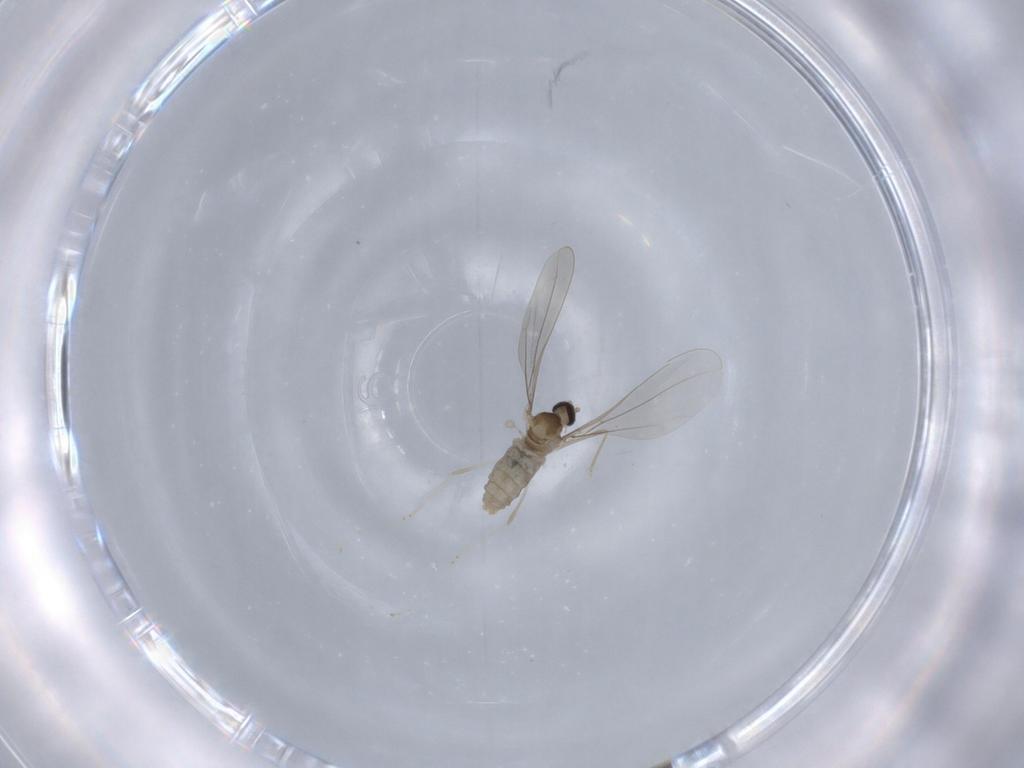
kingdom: Animalia
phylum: Arthropoda
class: Insecta
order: Diptera
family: Cecidomyiidae
